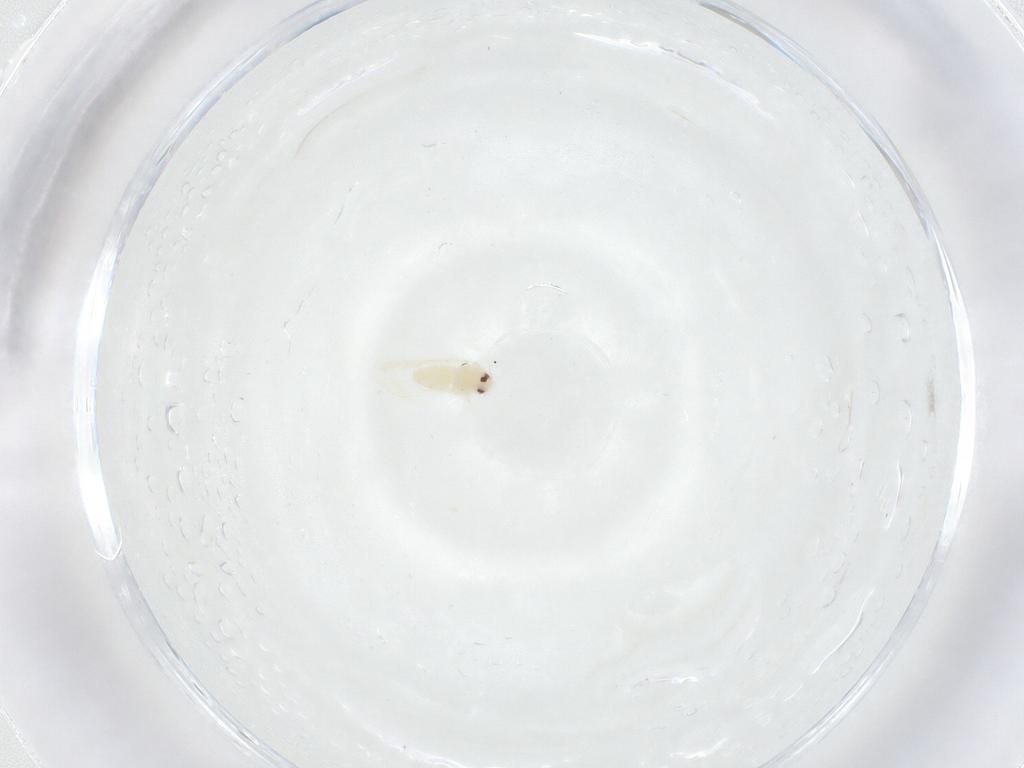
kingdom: Animalia
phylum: Arthropoda
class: Insecta
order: Hemiptera
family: Aleyrodidae
